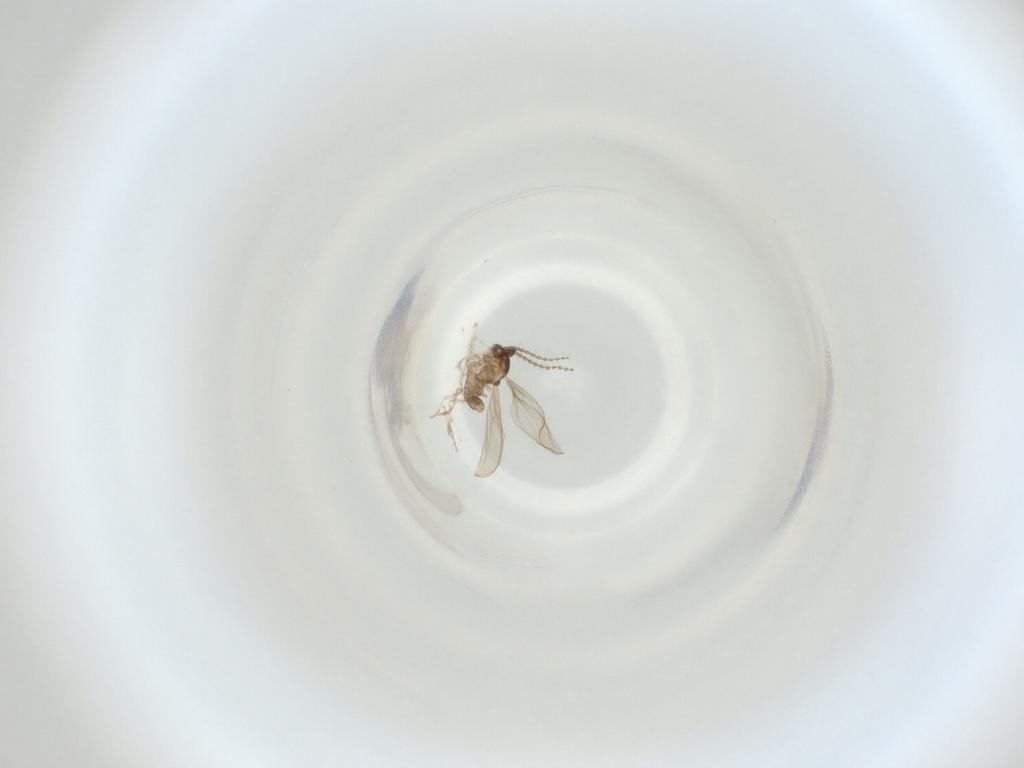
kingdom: Animalia
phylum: Arthropoda
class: Insecta
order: Diptera
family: Cecidomyiidae
